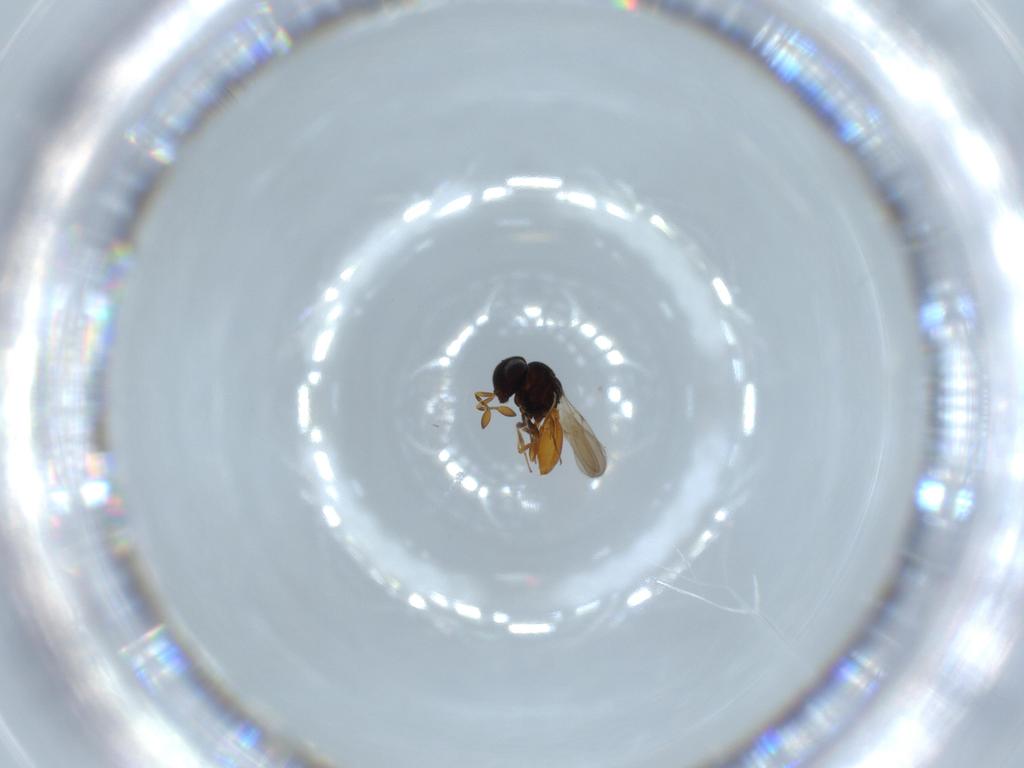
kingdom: Animalia
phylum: Arthropoda
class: Insecta
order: Hymenoptera
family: Scelionidae
